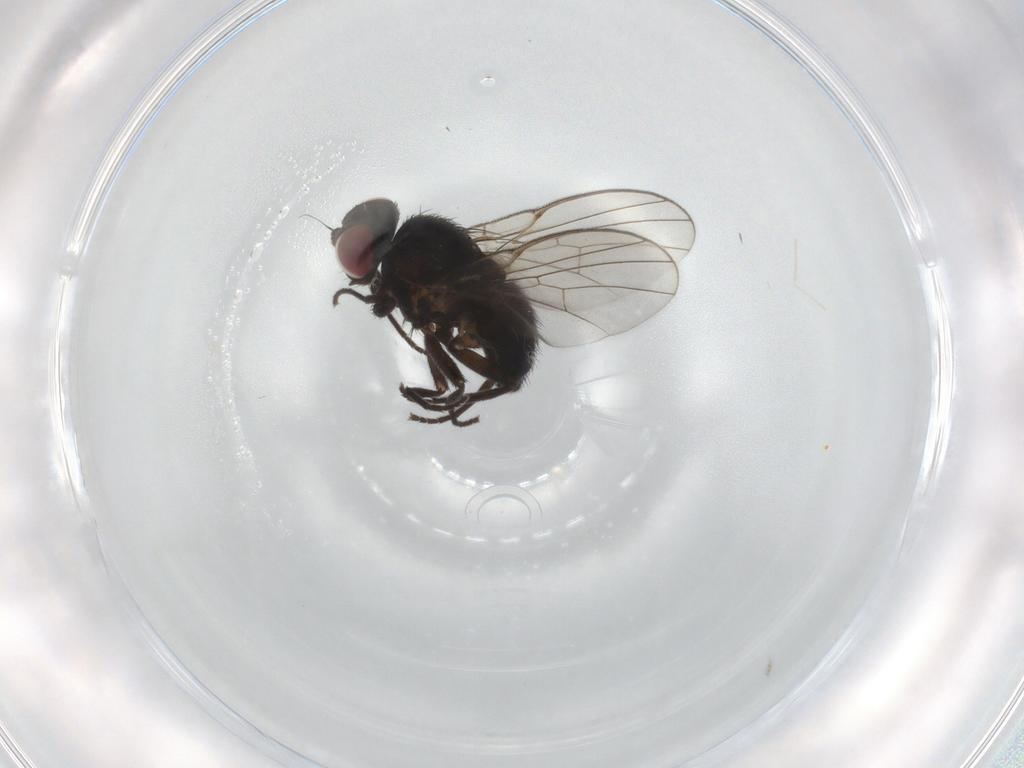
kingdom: Animalia
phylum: Arthropoda
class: Insecta
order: Diptera
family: Agromyzidae
